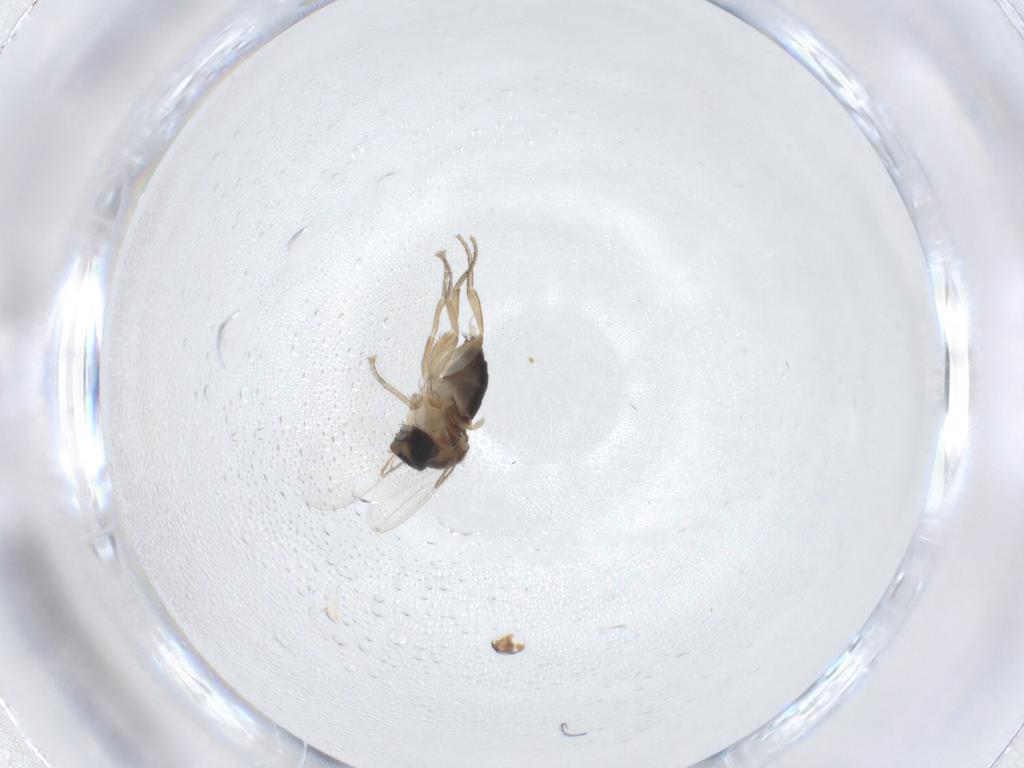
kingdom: Animalia
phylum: Arthropoda
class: Insecta
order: Diptera
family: Phoridae
